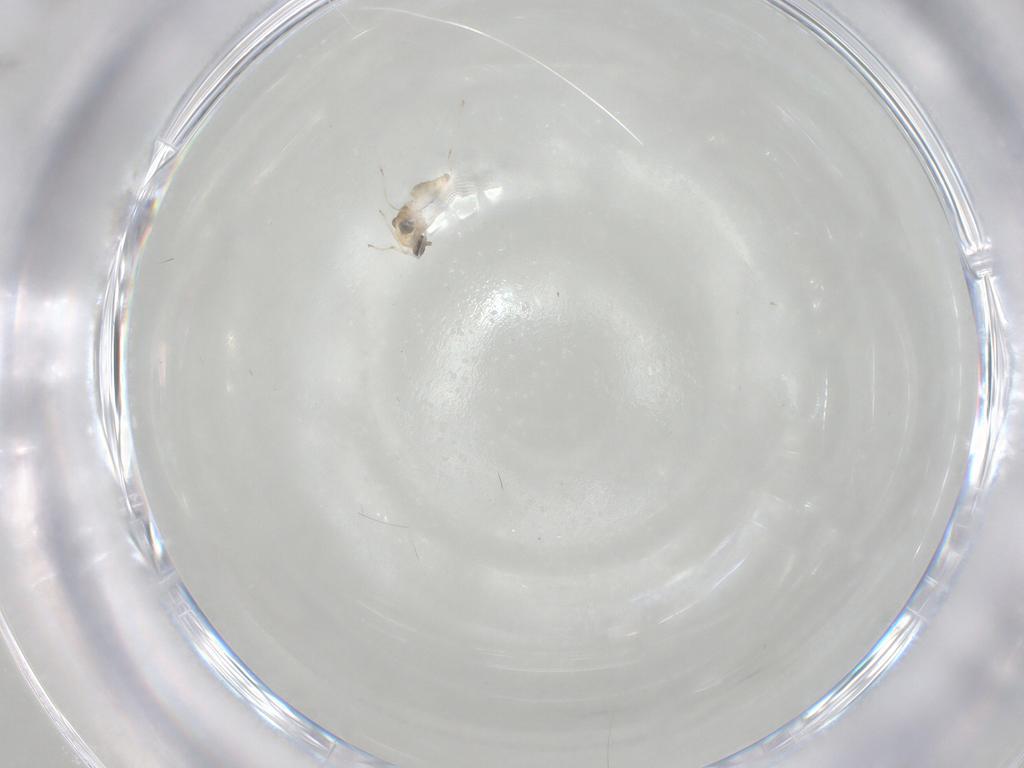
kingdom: Animalia
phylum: Arthropoda
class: Insecta
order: Diptera
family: Cecidomyiidae
